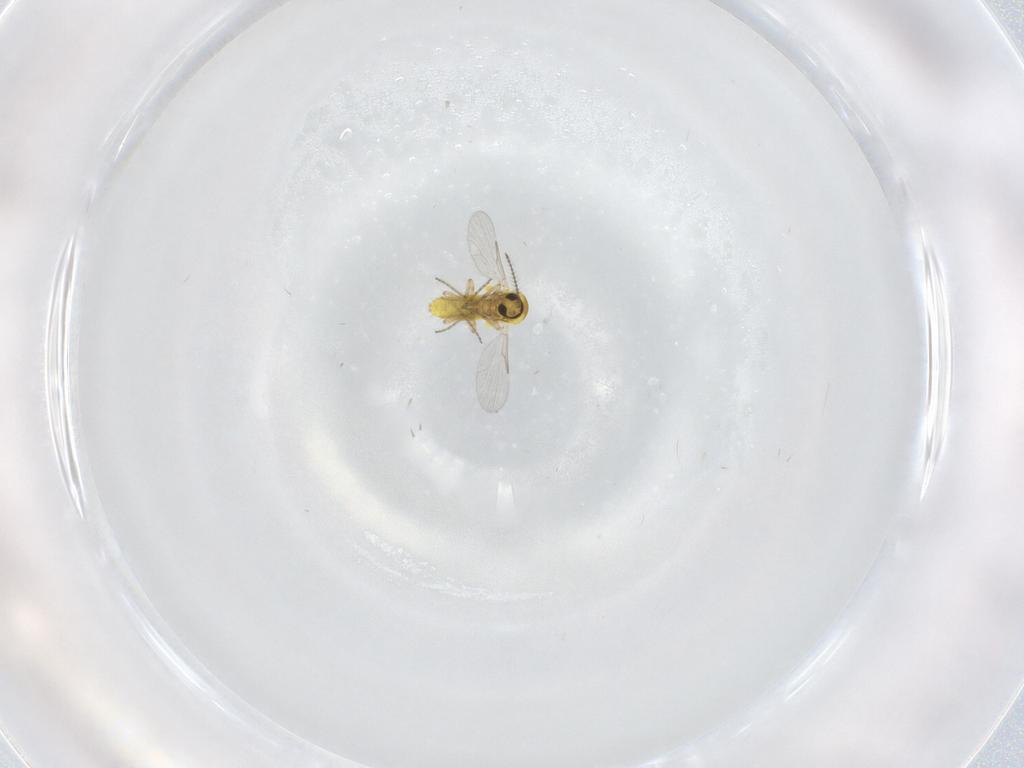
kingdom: Animalia
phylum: Arthropoda
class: Insecta
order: Diptera
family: Ceratopogonidae
